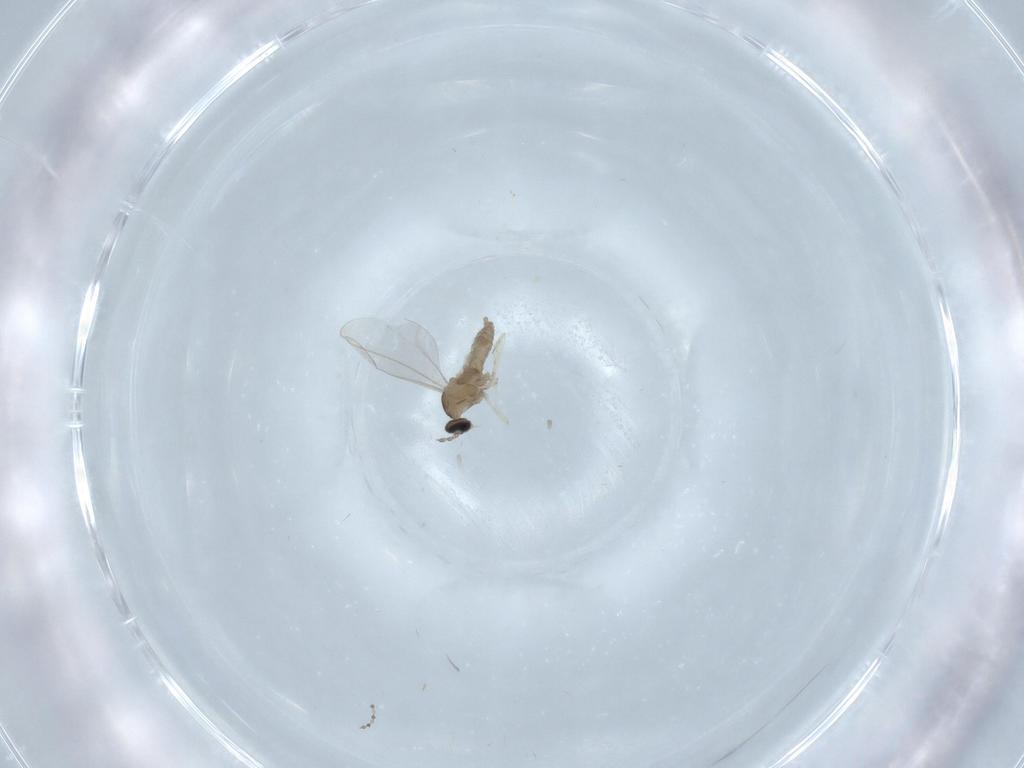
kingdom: Animalia
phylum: Arthropoda
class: Insecta
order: Diptera
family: Cecidomyiidae
